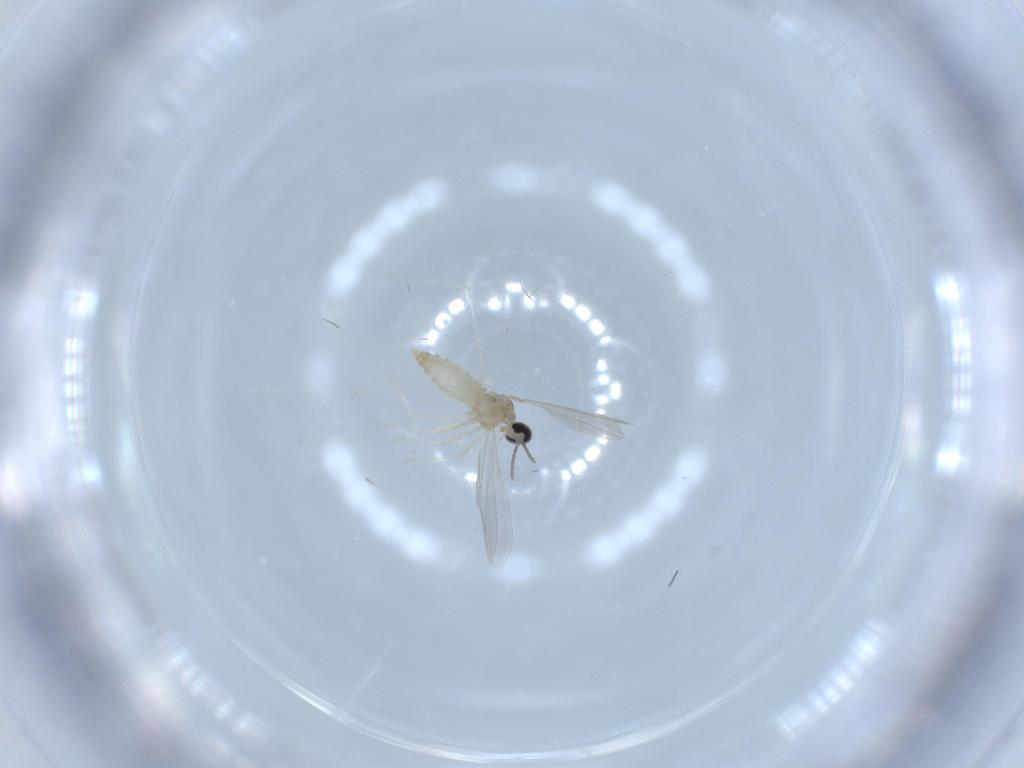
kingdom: Animalia
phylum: Arthropoda
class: Insecta
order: Diptera
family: Cecidomyiidae
